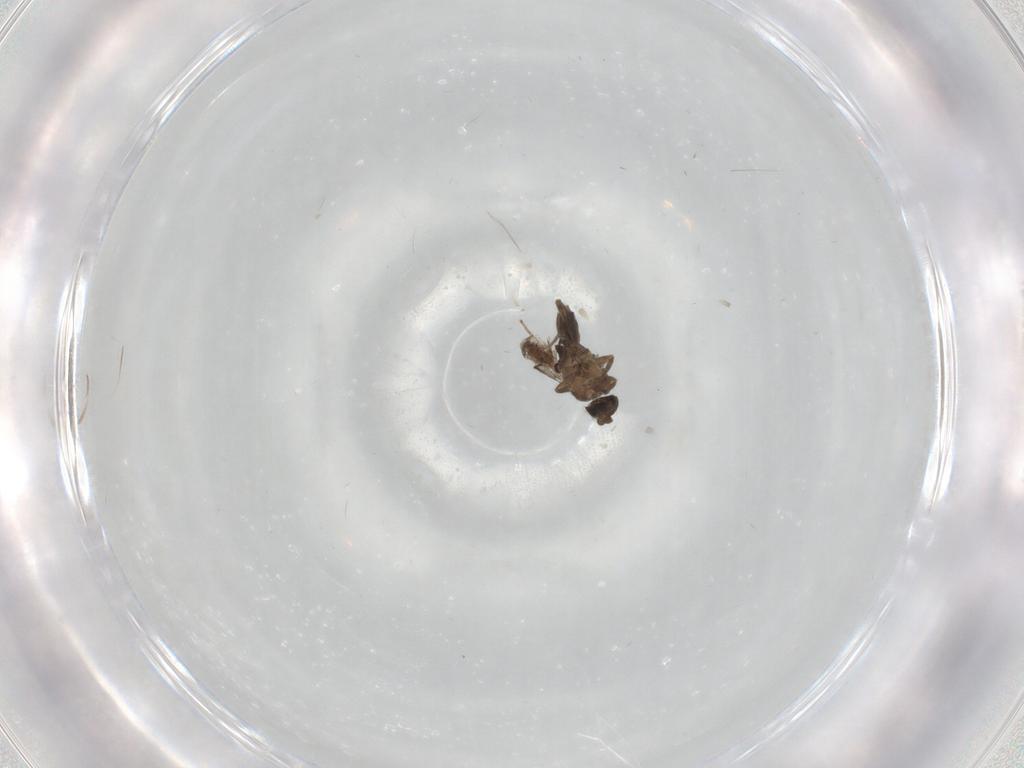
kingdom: Animalia
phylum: Arthropoda
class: Insecta
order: Diptera
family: Phoridae
